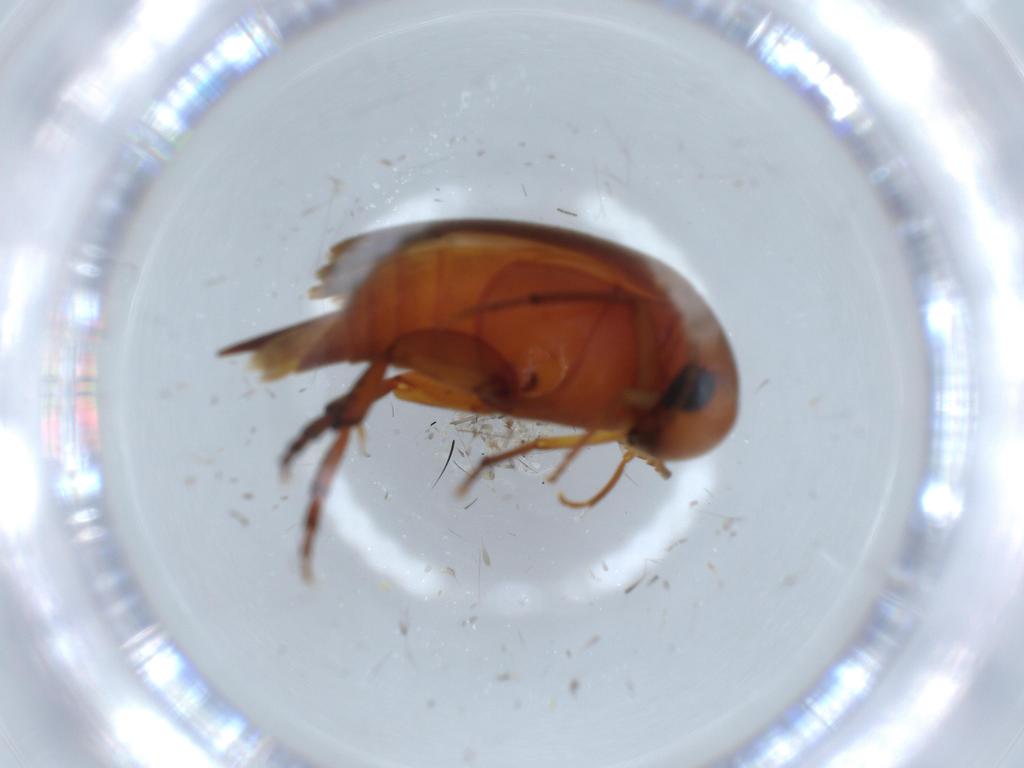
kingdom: Animalia
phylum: Arthropoda
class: Insecta
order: Coleoptera
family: Mordellidae
